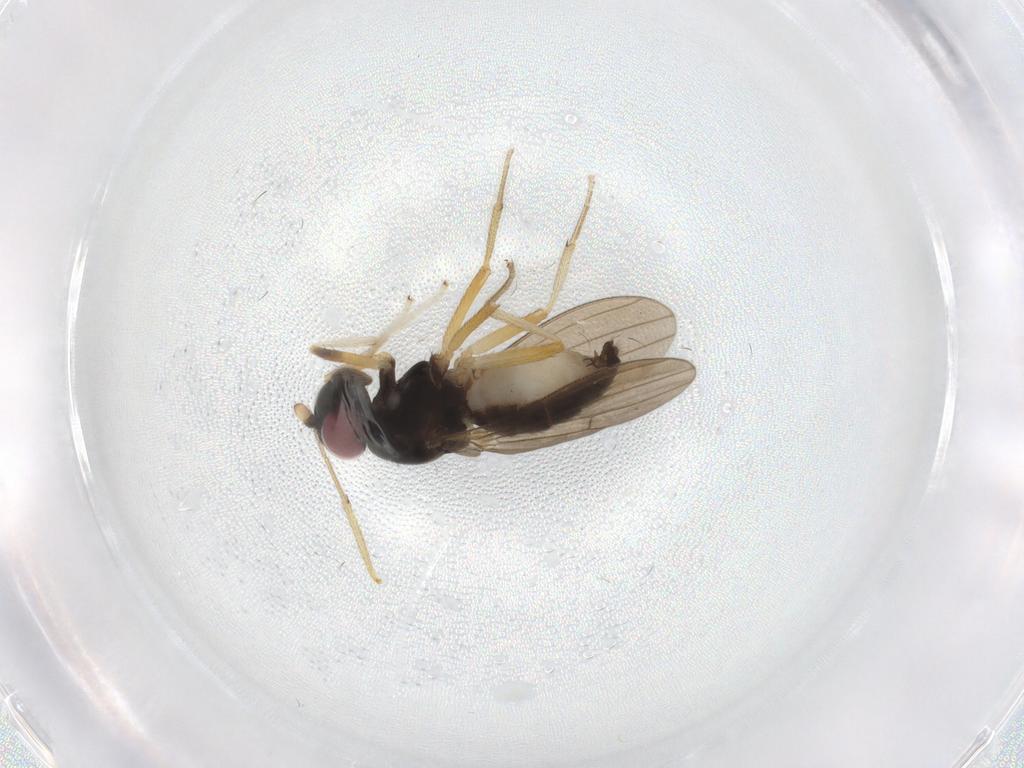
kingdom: Animalia
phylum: Arthropoda
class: Insecta
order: Diptera
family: Lauxaniidae
